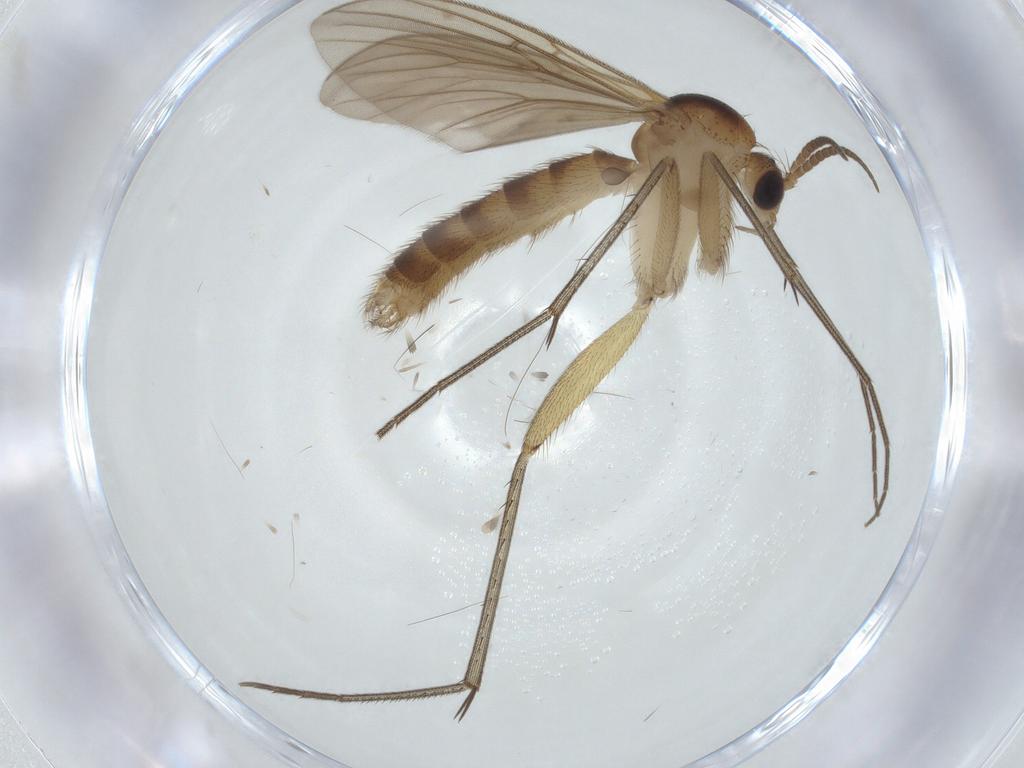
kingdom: Animalia
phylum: Arthropoda
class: Insecta
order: Diptera
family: Mycetophilidae
